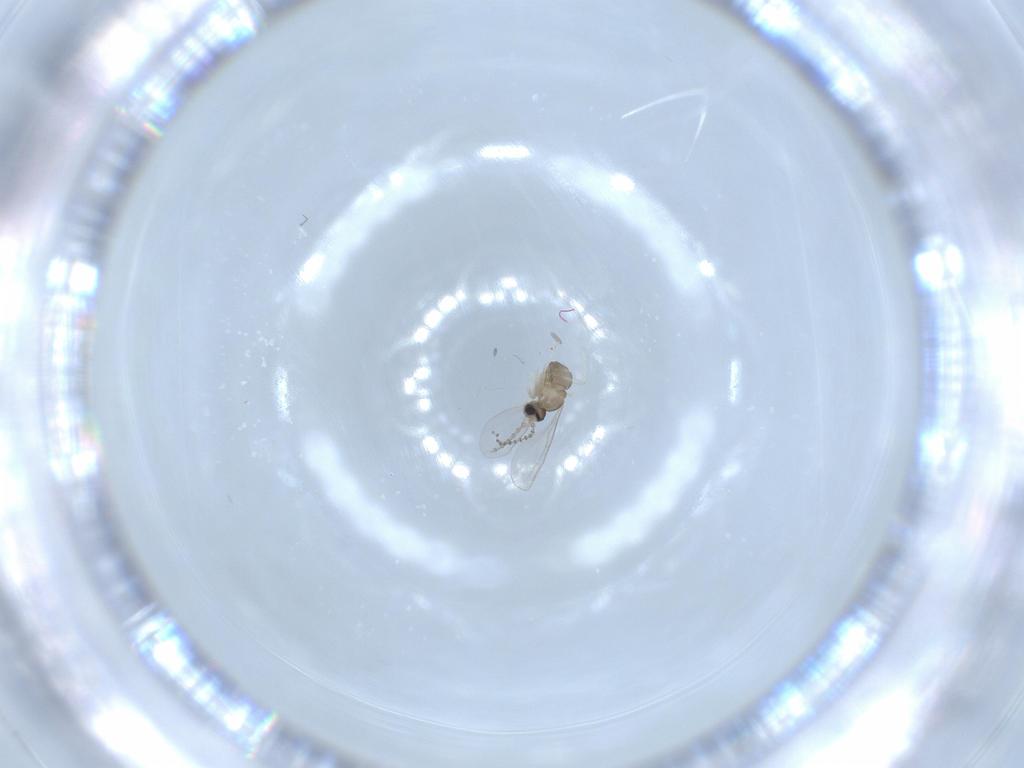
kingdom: Animalia
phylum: Arthropoda
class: Insecta
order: Diptera
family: Cecidomyiidae
